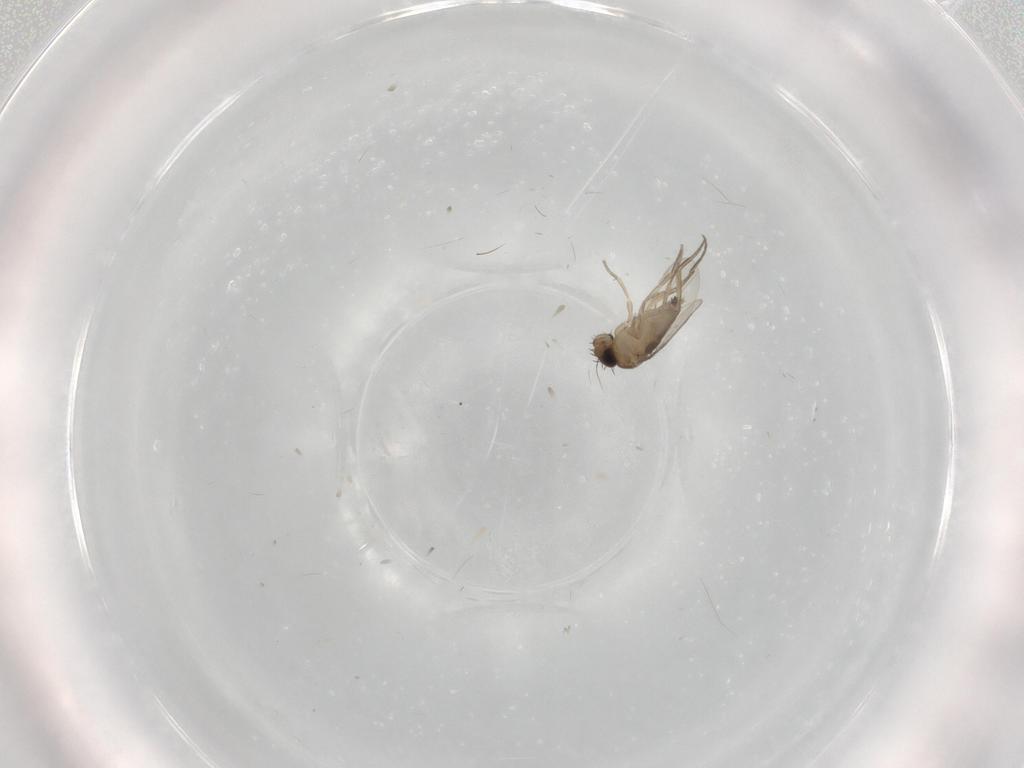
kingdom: Animalia
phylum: Arthropoda
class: Insecta
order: Diptera
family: Phoridae
